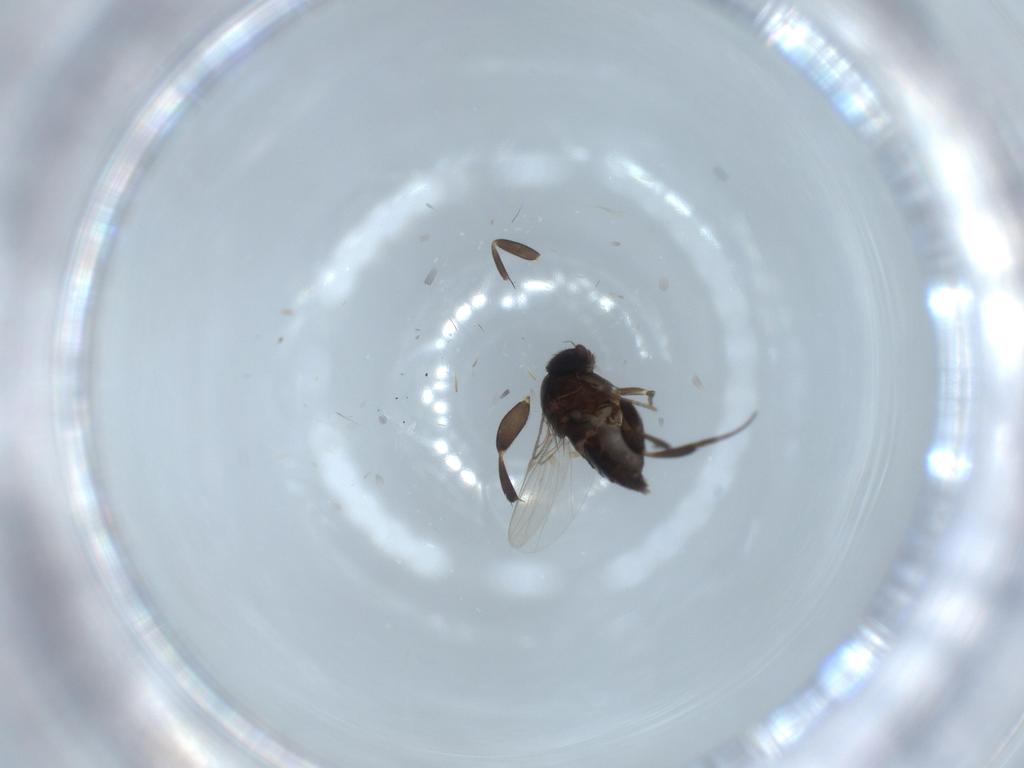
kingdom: Animalia
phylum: Arthropoda
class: Insecta
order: Diptera
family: Phoridae
